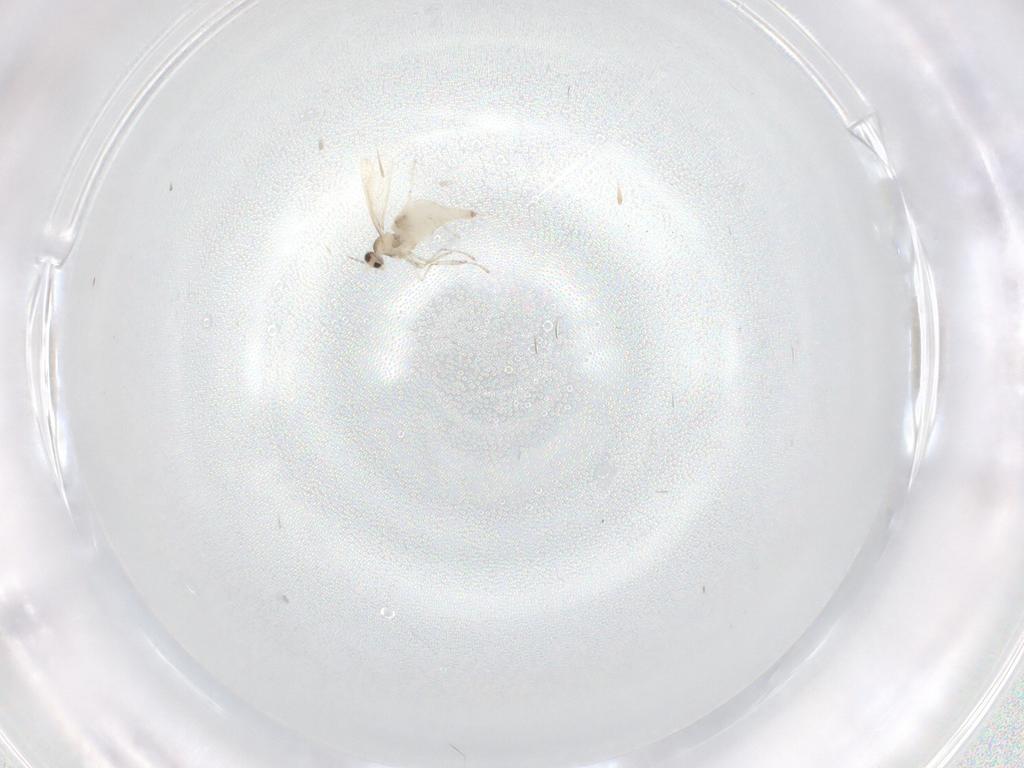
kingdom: Animalia
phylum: Arthropoda
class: Insecta
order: Diptera
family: Cecidomyiidae
